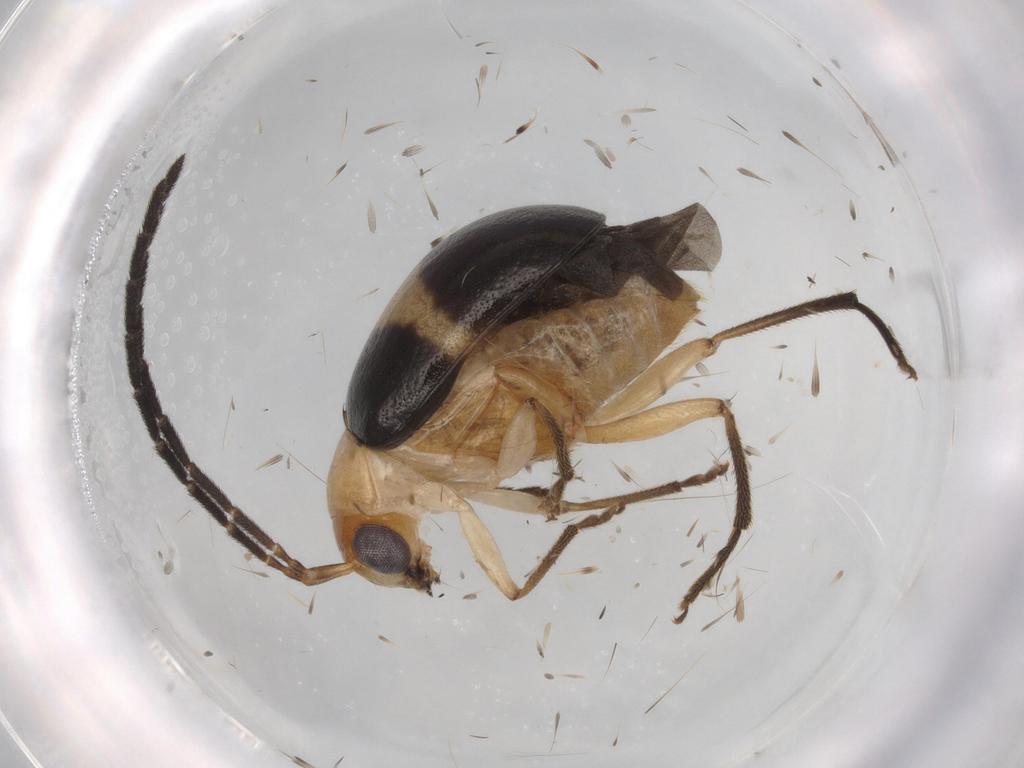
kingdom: Animalia
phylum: Arthropoda
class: Insecta
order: Coleoptera
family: Chrysomelidae
